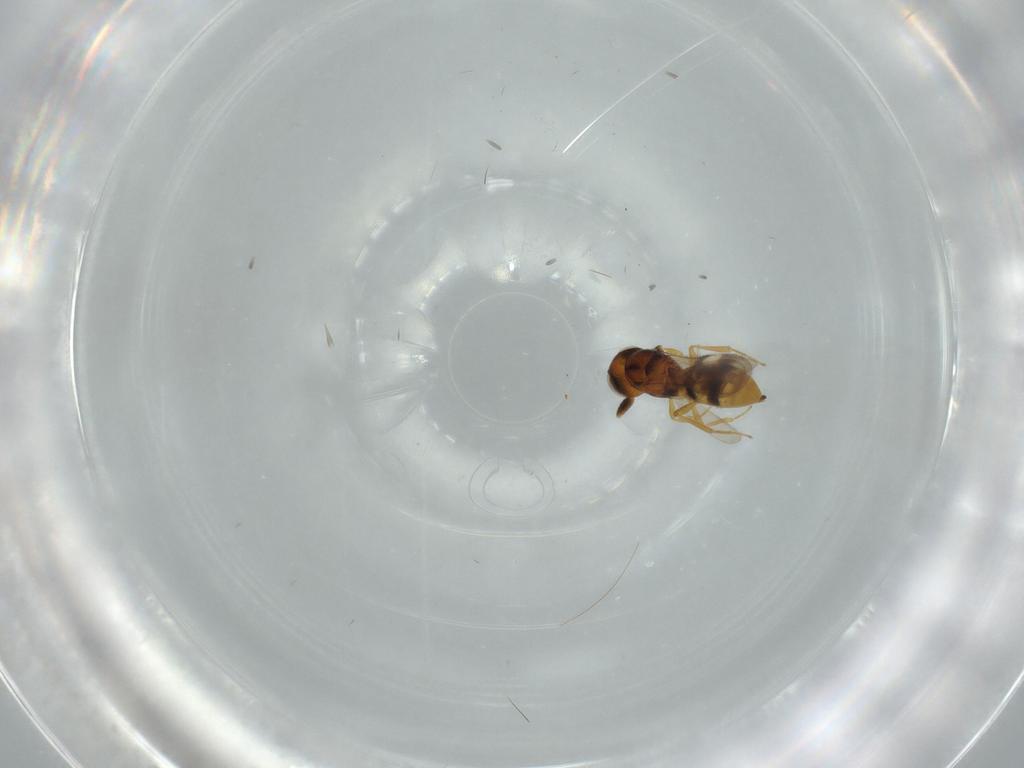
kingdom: Animalia
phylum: Arthropoda
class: Insecta
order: Hymenoptera
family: Scelionidae
